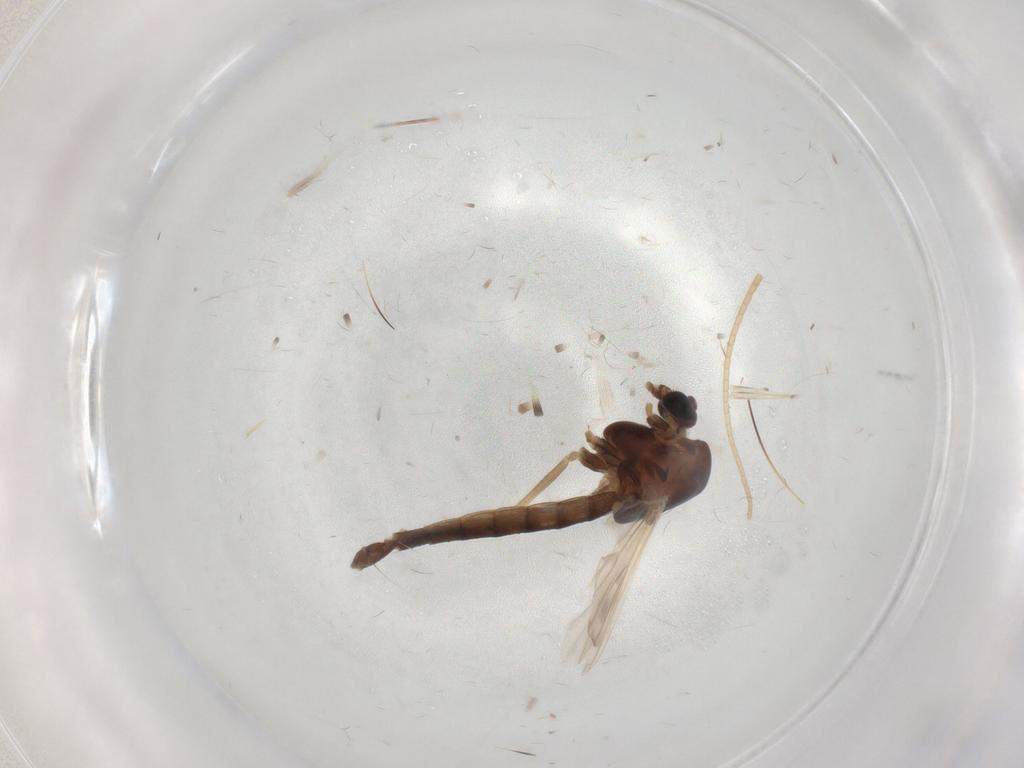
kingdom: Animalia
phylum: Arthropoda
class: Insecta
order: Diptera
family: Chironomidae
